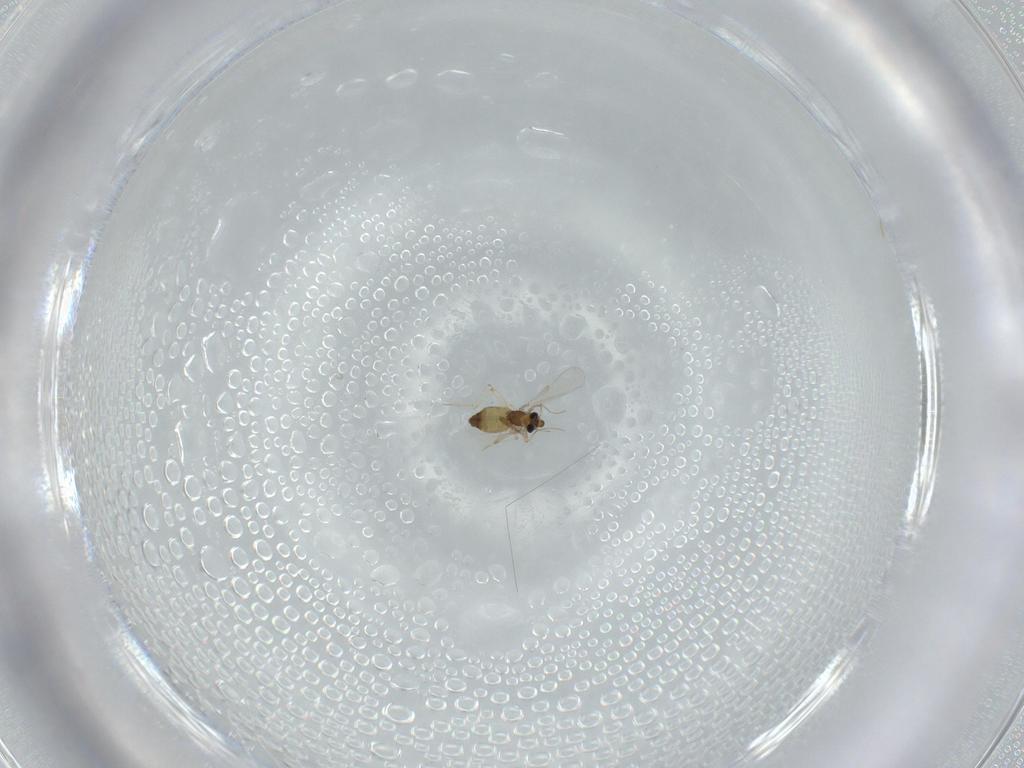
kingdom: Animalia
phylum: Arthropoda
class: Insecta
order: Diptera
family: Chironomidae
